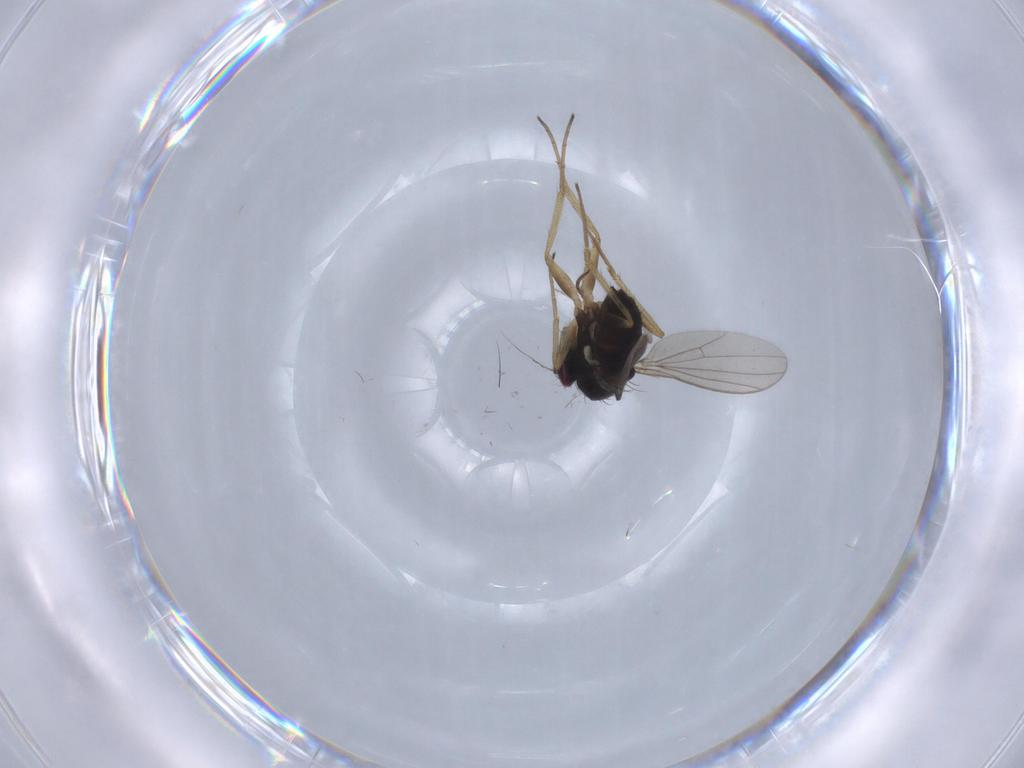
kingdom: Animalia
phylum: Arthropoda
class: Insecta
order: Diptera
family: Dolichopodidae
